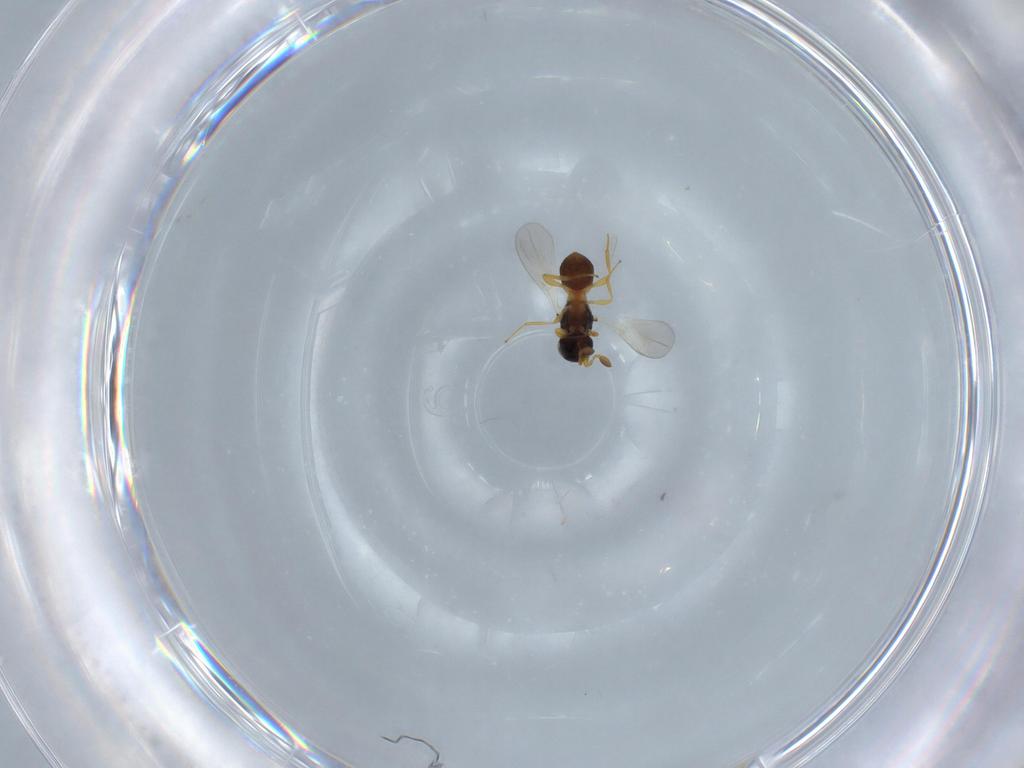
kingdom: Animalia
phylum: Arthropoda
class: Insecta
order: Hymenoptera
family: Platygastridae
